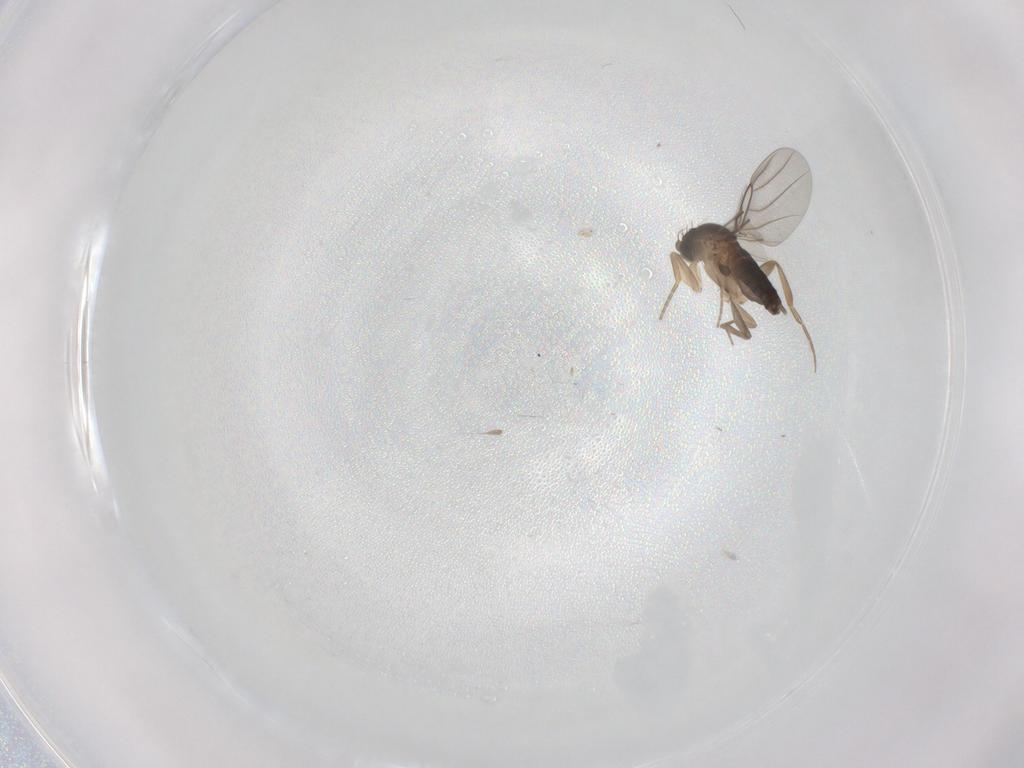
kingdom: Animalia
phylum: Arthropoda
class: Insecta
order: Diptera
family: Phoridae
